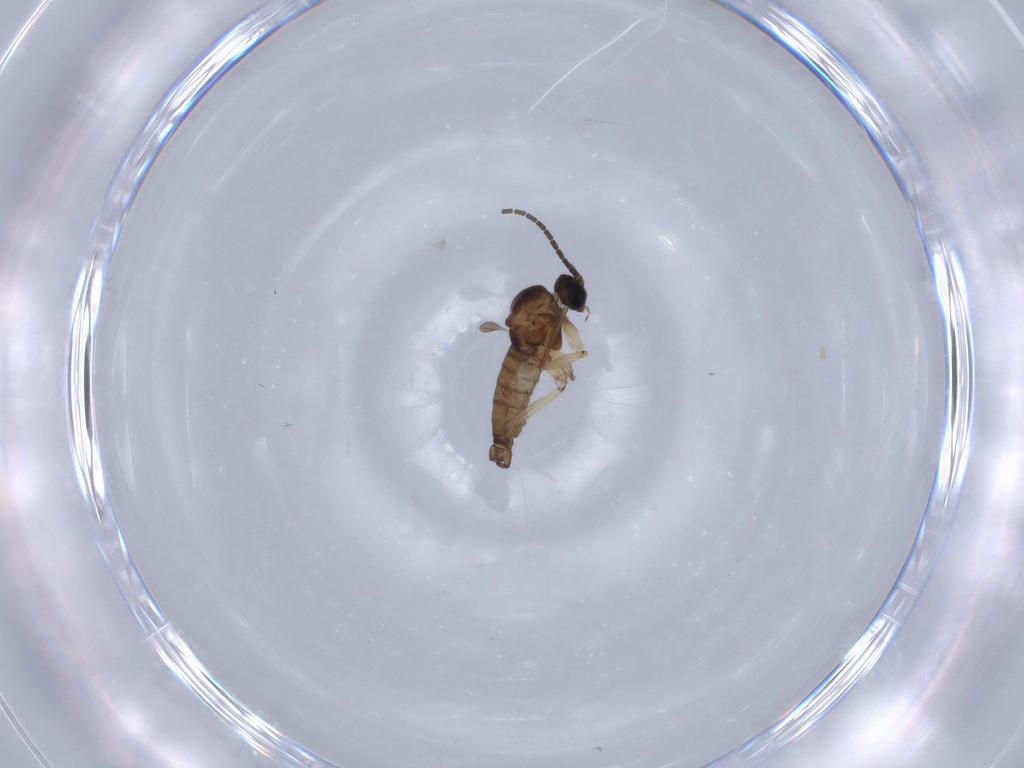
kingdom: Animalia
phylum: Arthropoda
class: Insecta
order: Diptera
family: Sciaridae
